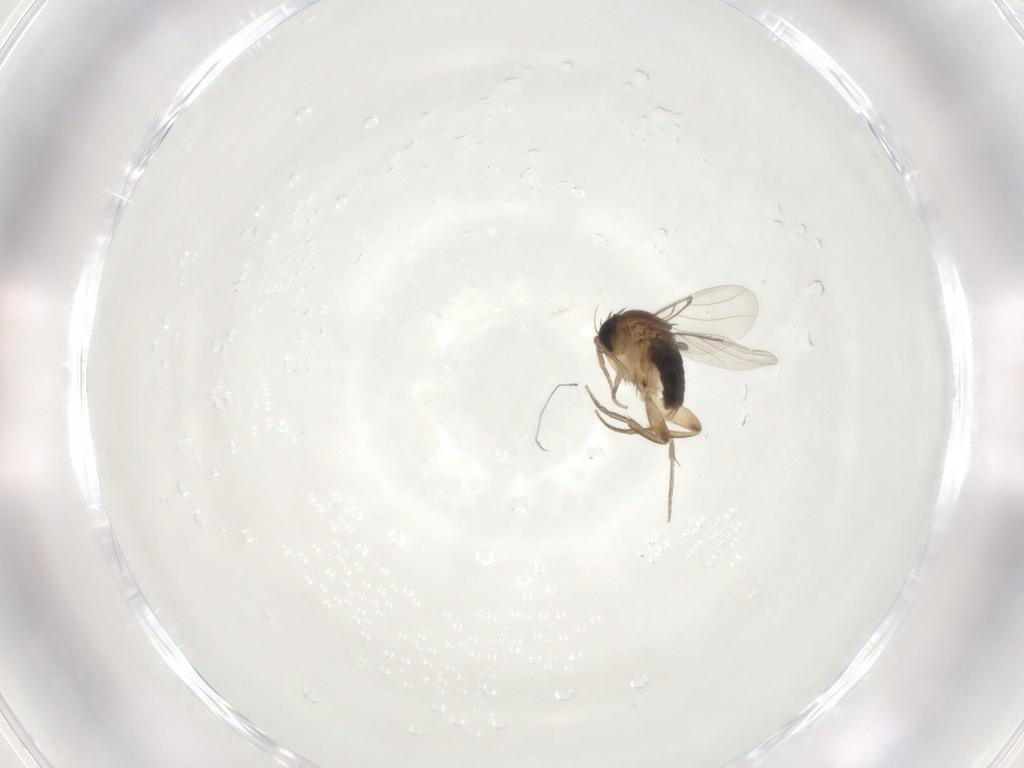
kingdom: Animalia
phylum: Arthropoda
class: Insecta
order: Diptera
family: Phoridae
